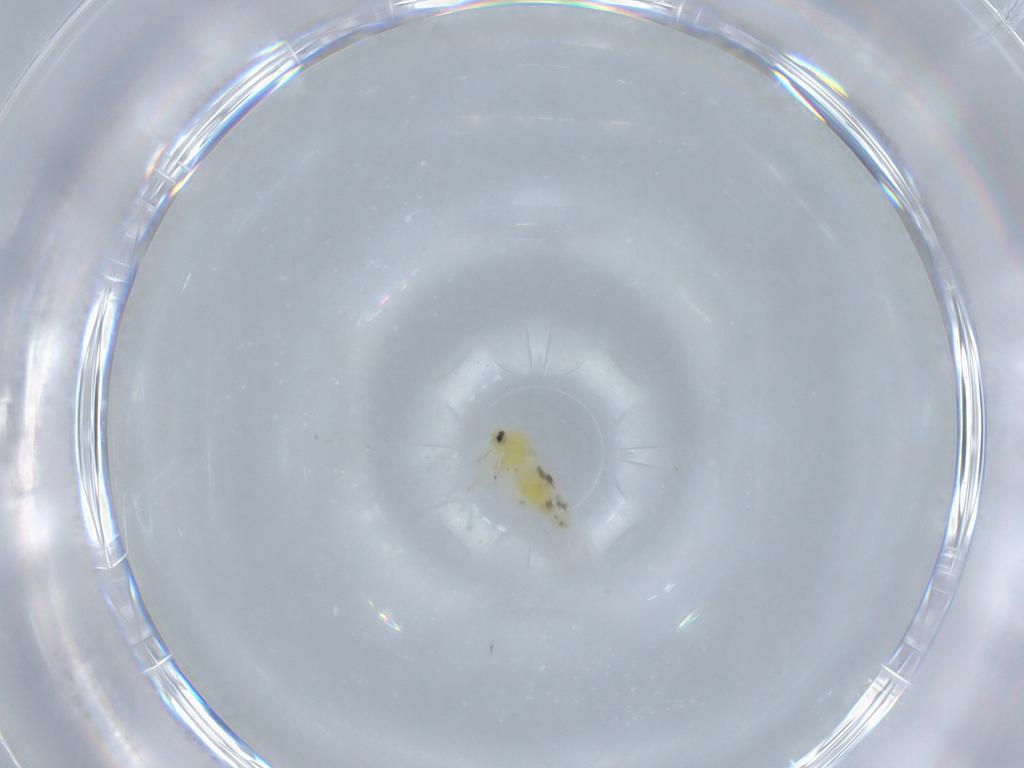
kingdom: Animalia
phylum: Arthropoda
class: Insecta
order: Hemiptera
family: Aleyrodidae
